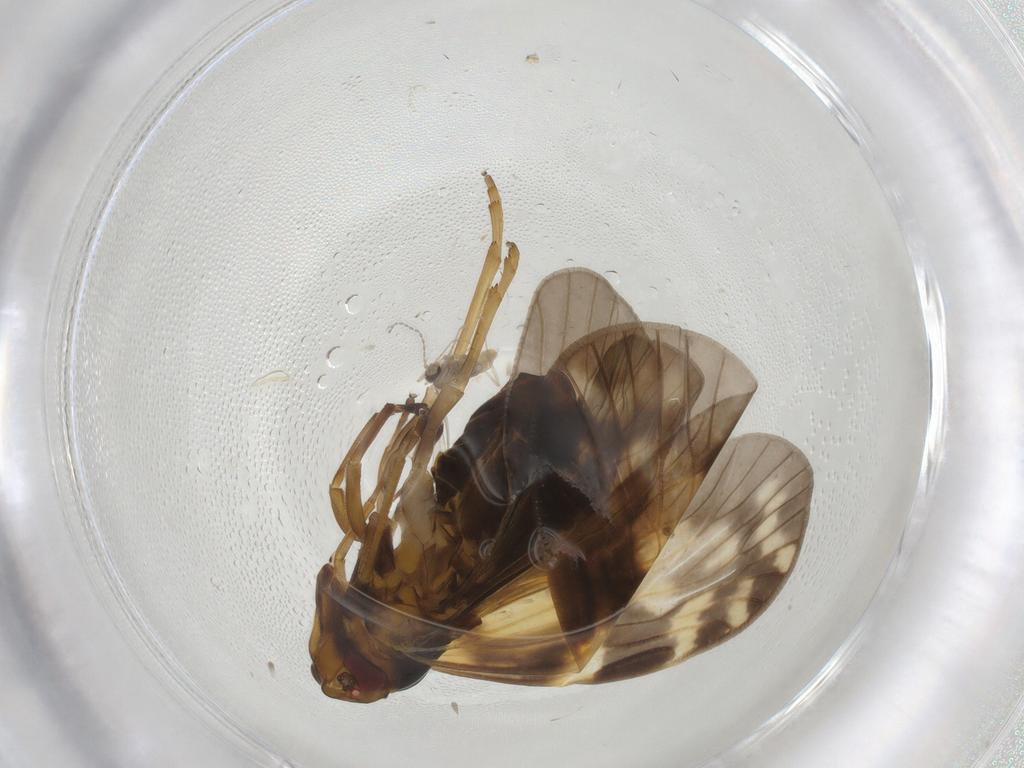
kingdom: Animalia
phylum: Arthropoda
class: Insecta
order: Hemiptera
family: Cixiidae
